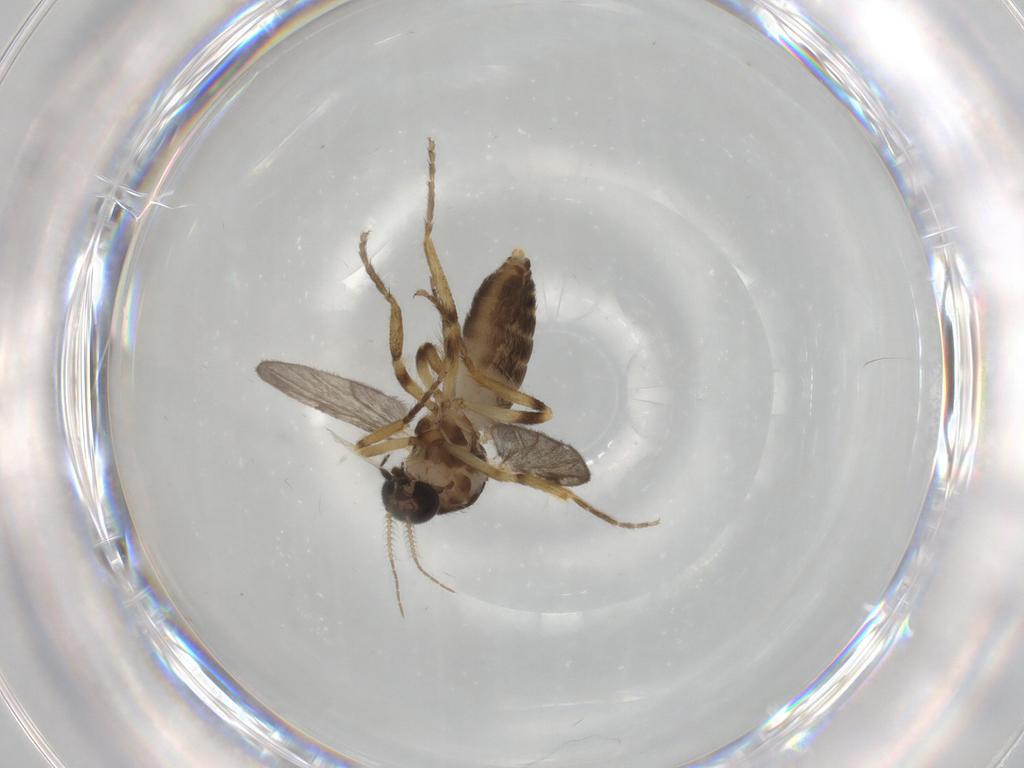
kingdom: Animalia
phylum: Arthropoda
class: Insecta
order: Diptera
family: Ceratopogonidae
